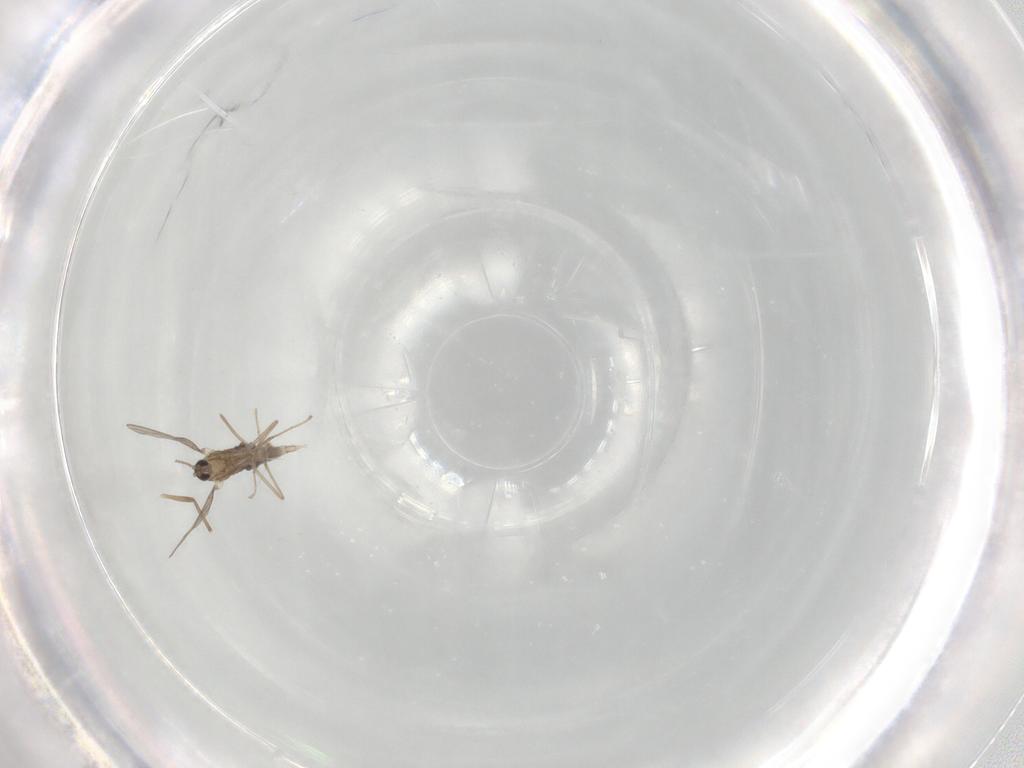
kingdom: Animalia
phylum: Arthropoda
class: Insecta
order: Diptera
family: Cecidomyiidae
